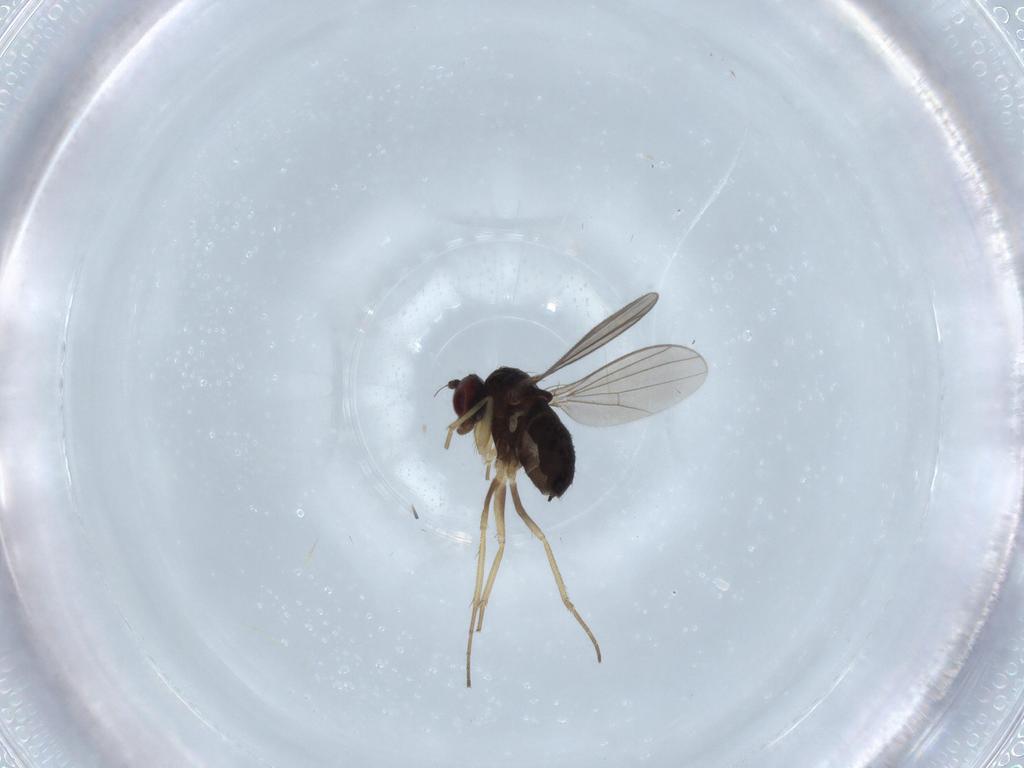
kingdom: Animalia
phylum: Arthropoda
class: Insecta
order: Diptera
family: Dolichopodidae
